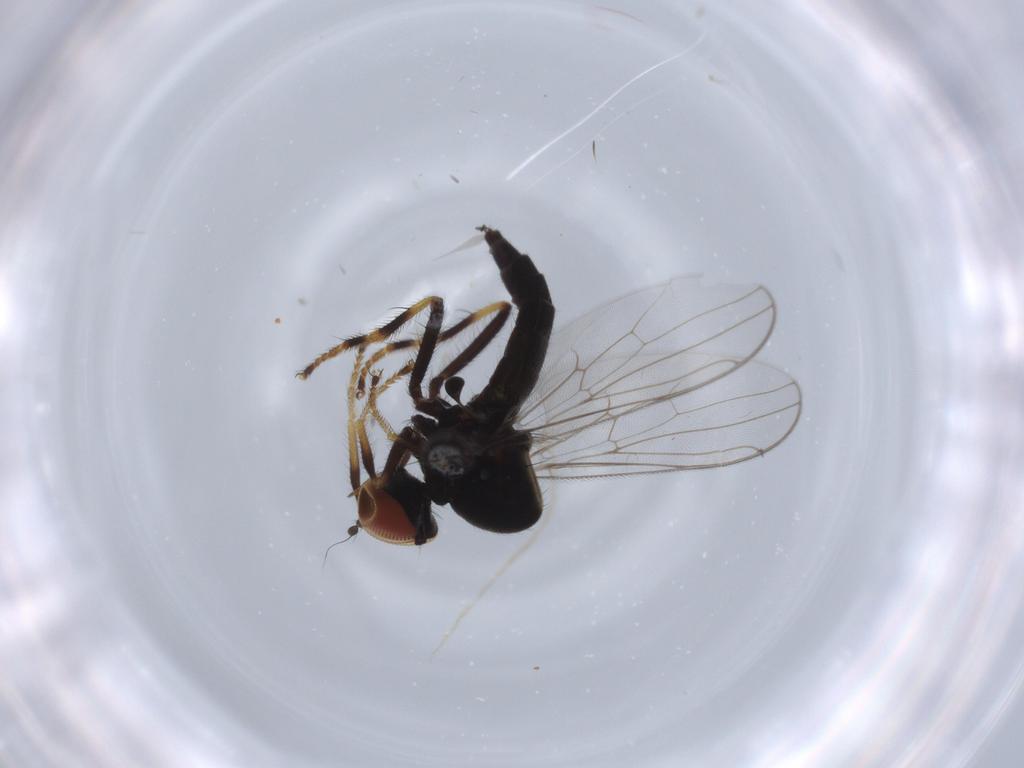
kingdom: Animalia
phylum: Arthropoda
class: Insecta
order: Diptera
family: Hybotidae
